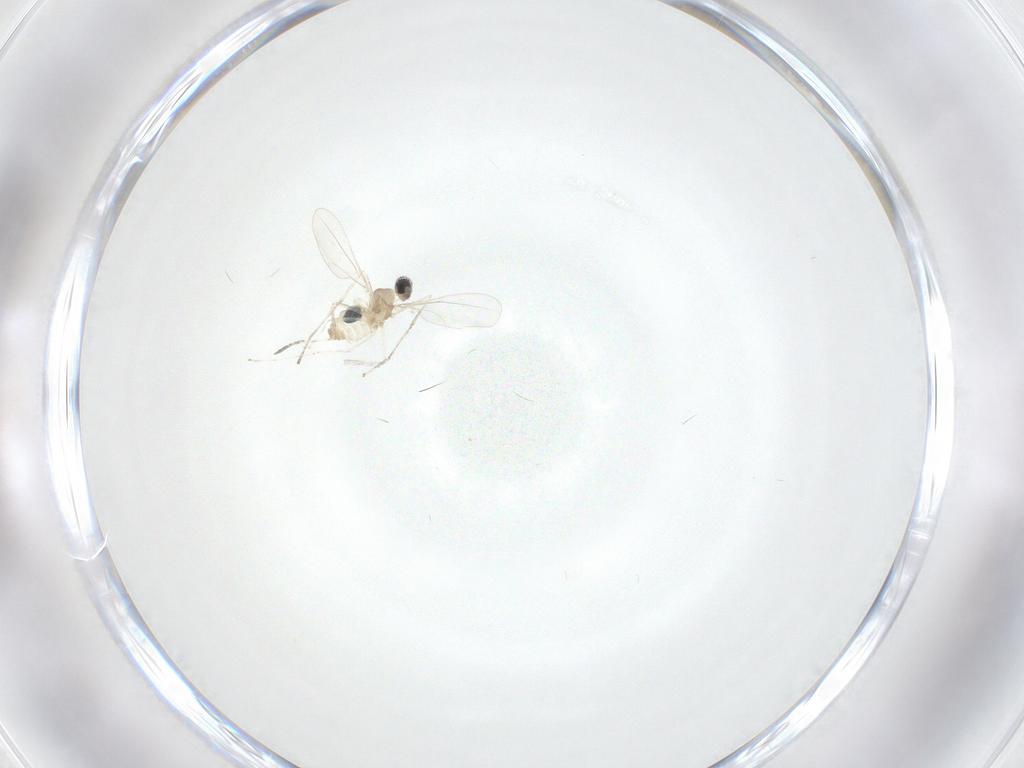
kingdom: Animalia
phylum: Arthropoda
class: Insecta
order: Diptera
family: Cecidomyiidae
